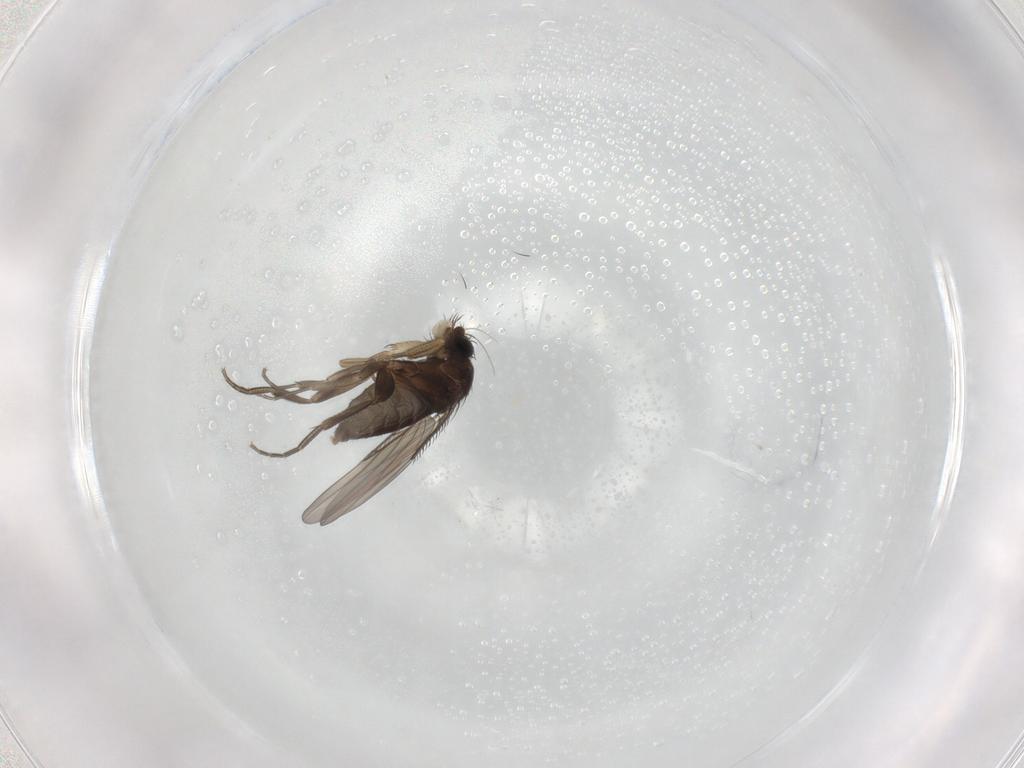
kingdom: Animalia
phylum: Arthropoda
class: Insecta
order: Diptera
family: Phoridae
